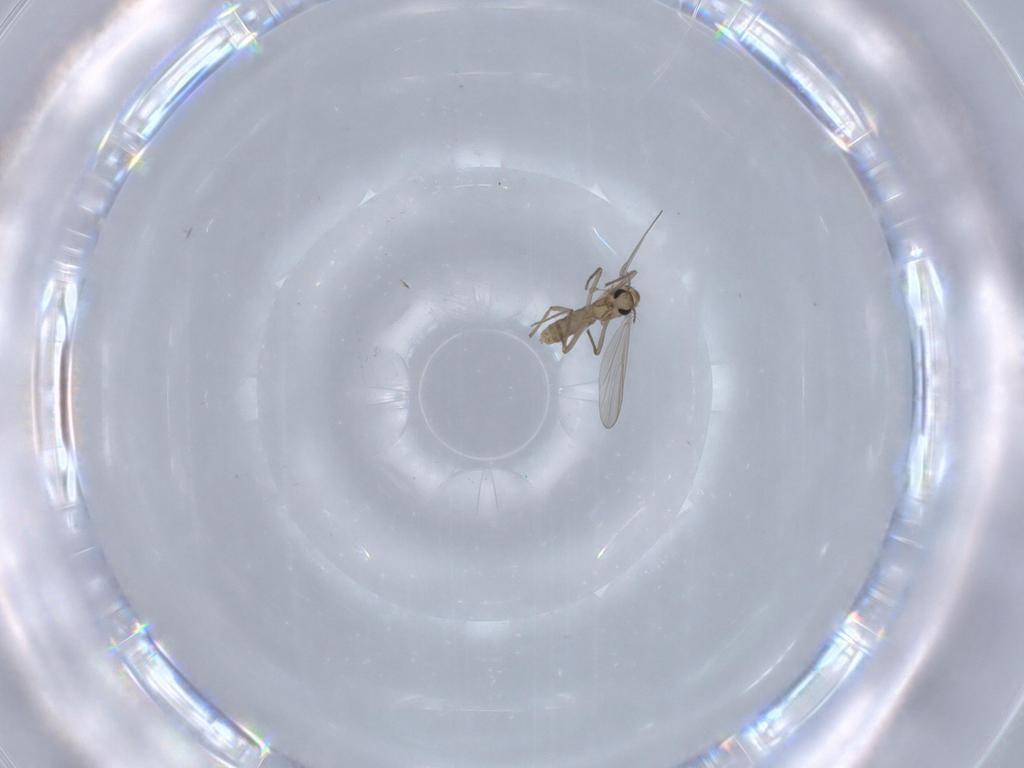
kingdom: Animalia
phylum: Arthropoda
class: Insecta
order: Diptera
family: Chironomidae
